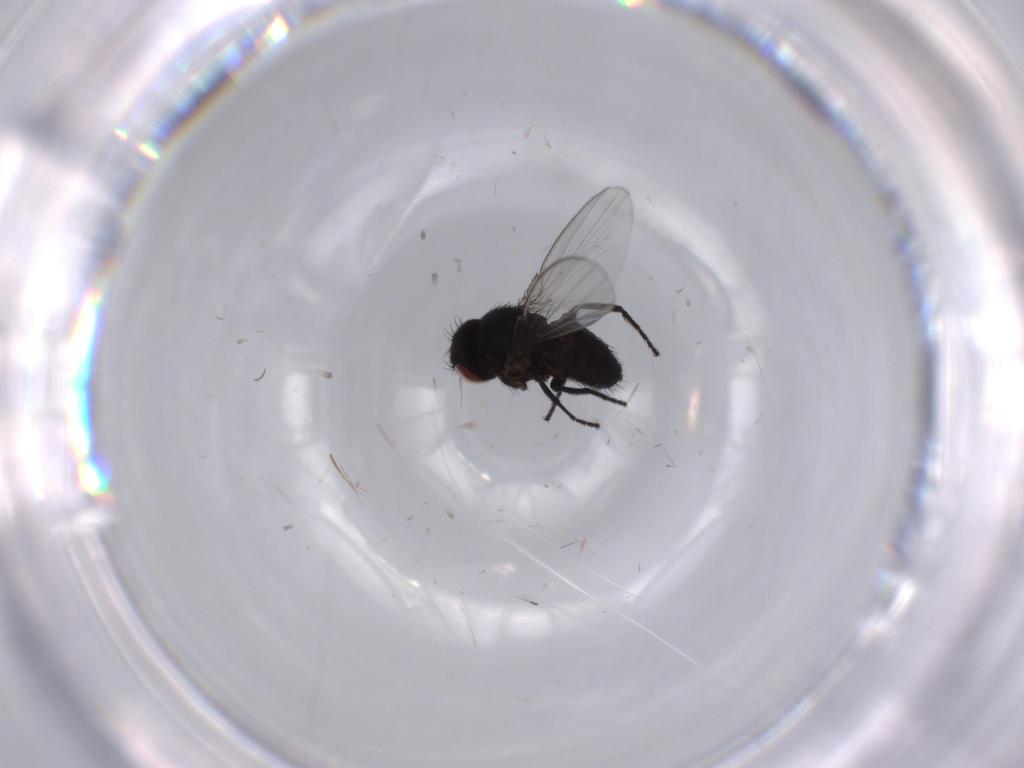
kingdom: Animalia
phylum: Arthropoda
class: Insecta
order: Diptera
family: Milichiidae
